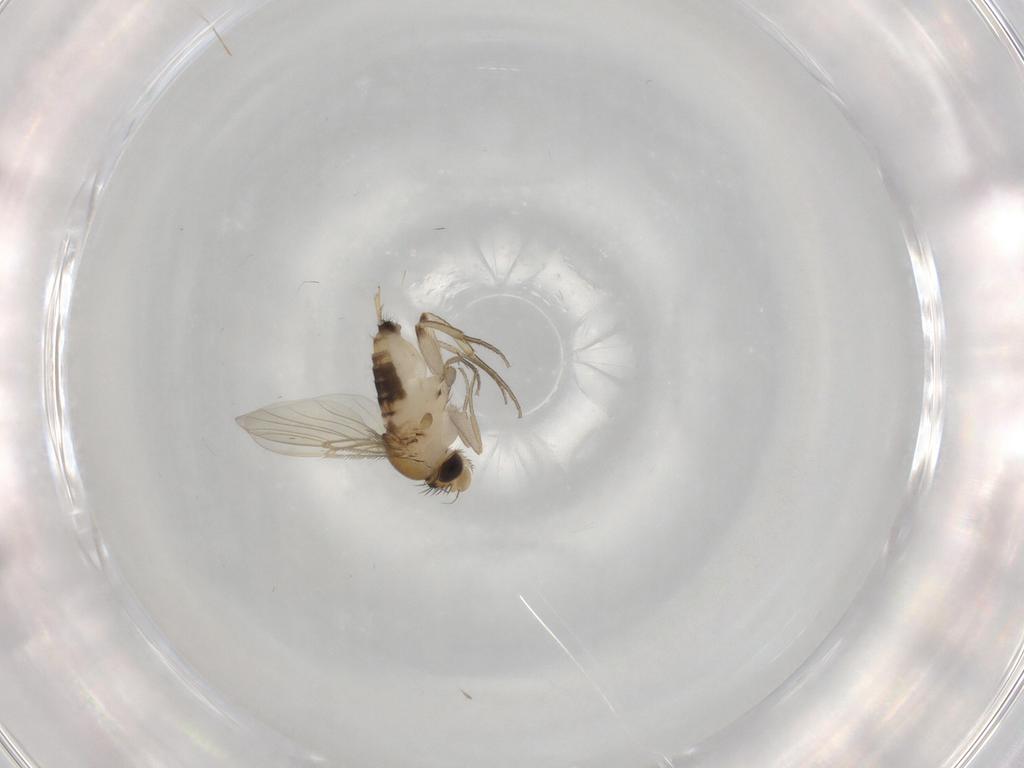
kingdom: Animalia
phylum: Arthropoda
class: Insecta
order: Diptera
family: Phoridae
